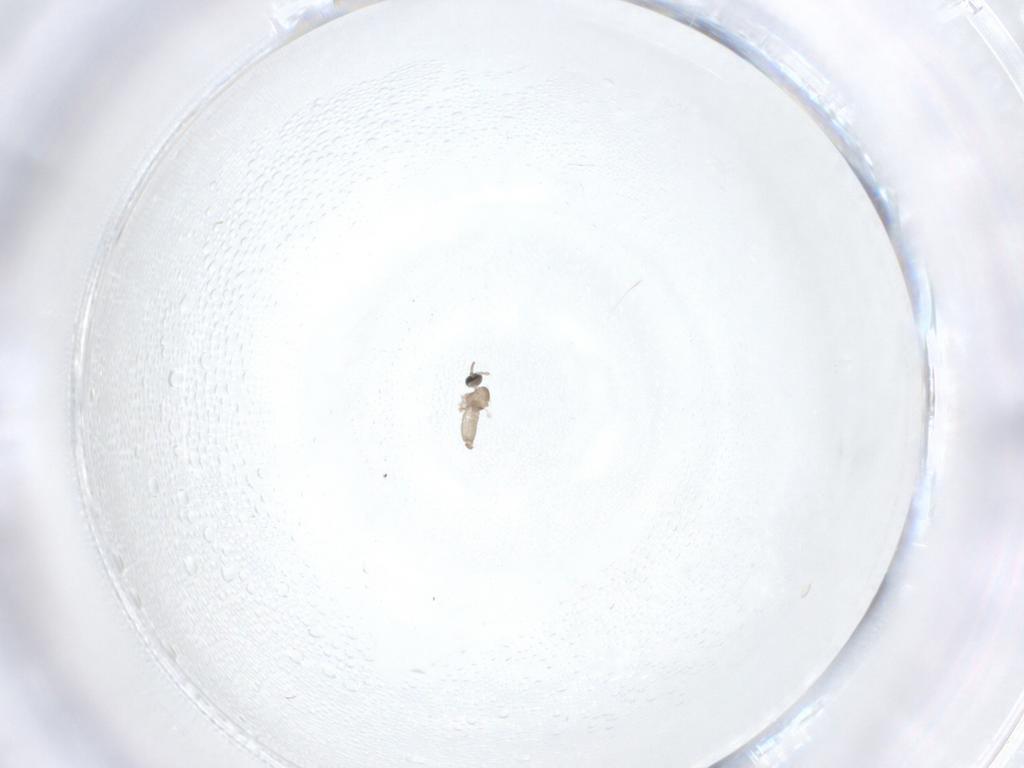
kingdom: Animalia
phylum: Arthropoda
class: Insecta
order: Diptera
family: Cecidomyiidae
